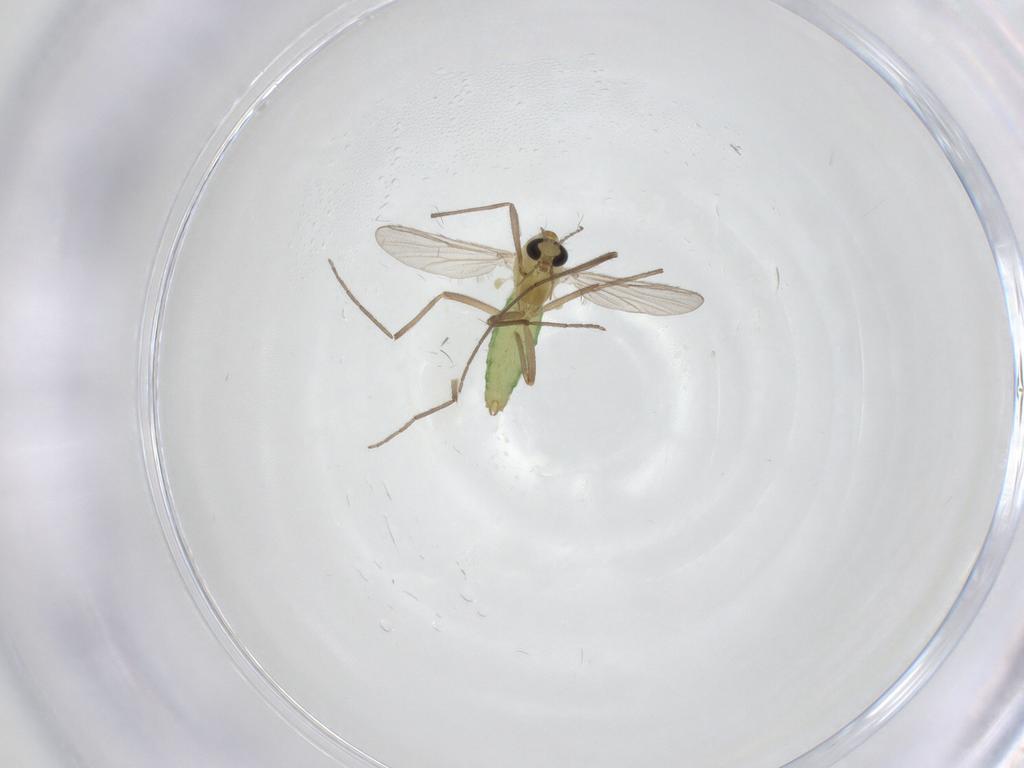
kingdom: Animalia
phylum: Arthropoda
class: Insecta
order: Diptera
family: Chironomidae
